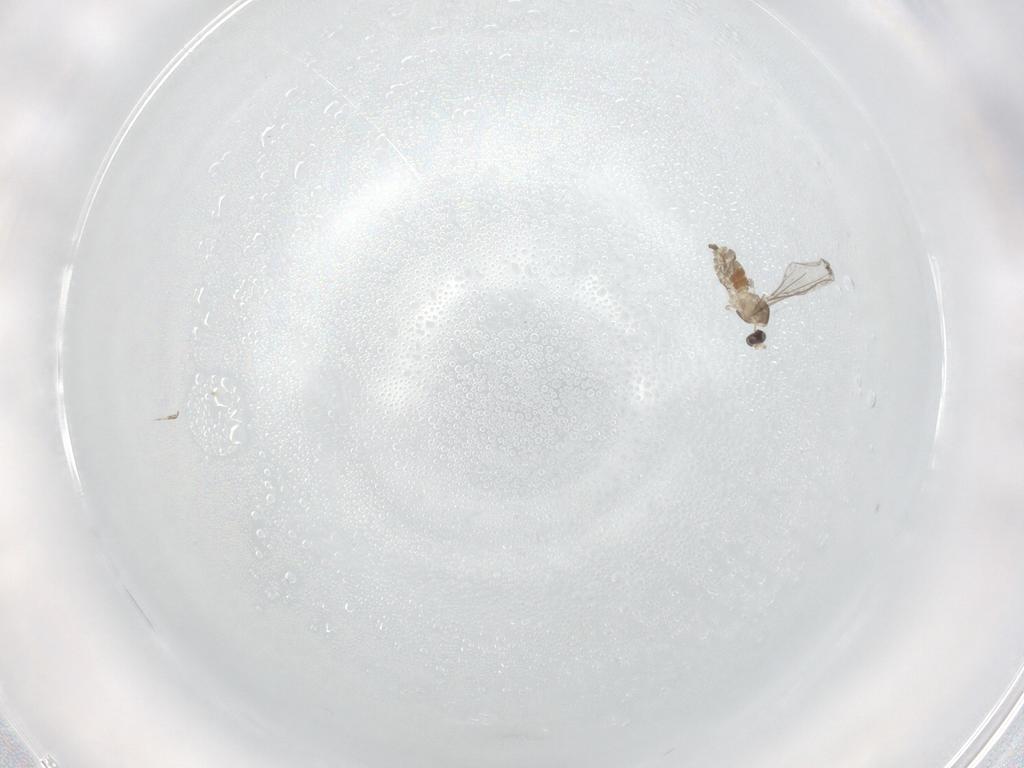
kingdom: Animalia
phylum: Arthropoda
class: Insecta
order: Diptera
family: Cecidomyiidae
